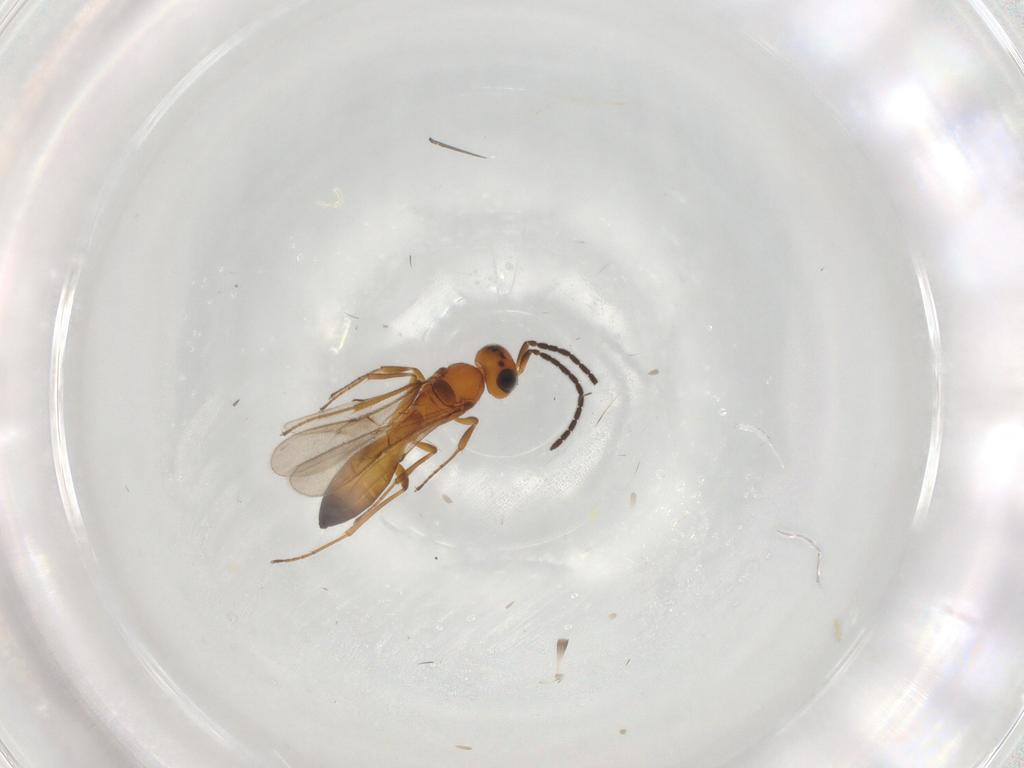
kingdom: Animalia
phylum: Arthropoda
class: Insecta
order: Hymenoptera
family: Scelionidae
